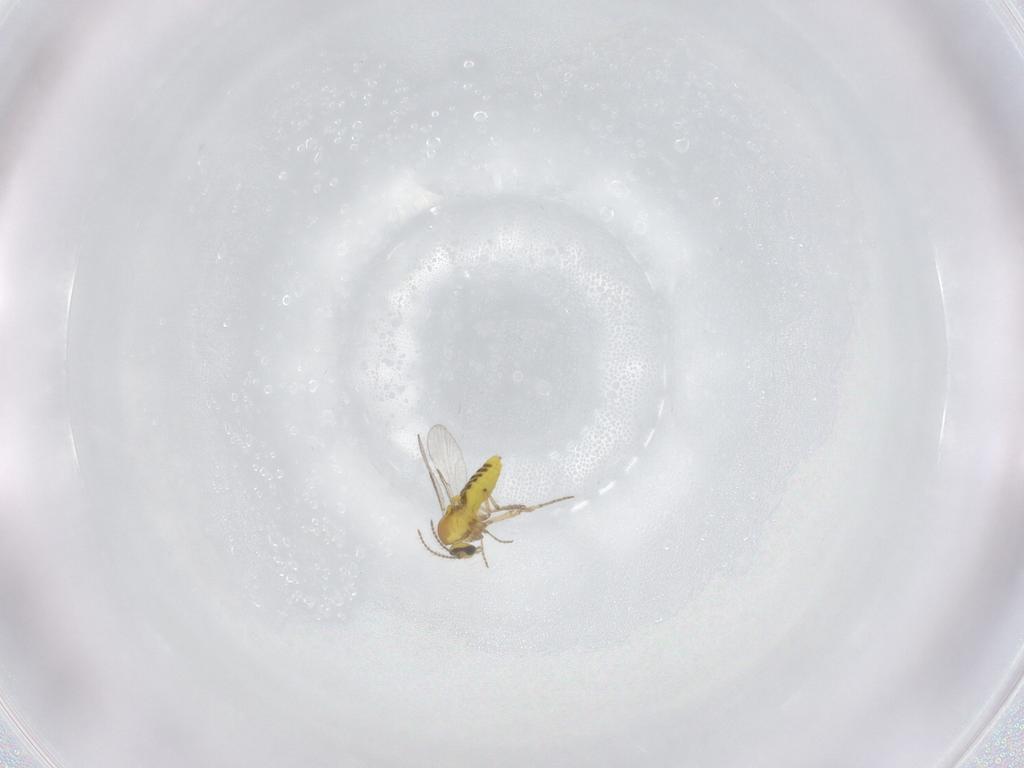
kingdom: Animalia
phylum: Arthropoda
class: Insecta
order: Diptera
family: Ceratopogonidae
